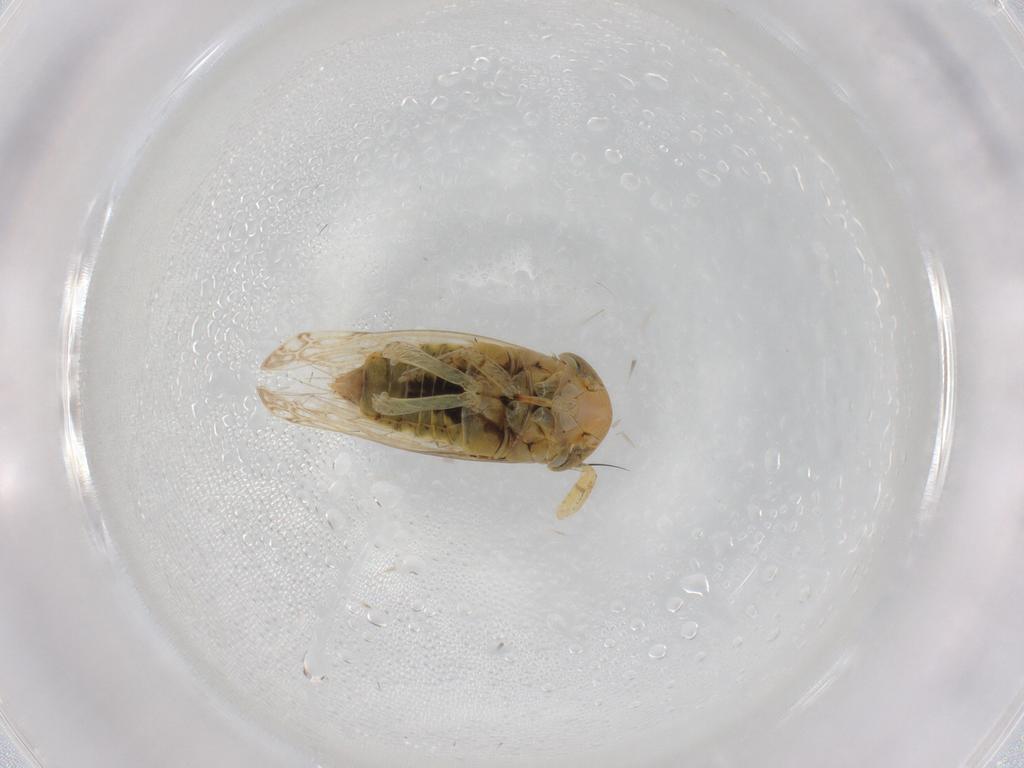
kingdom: Animalia
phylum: Arthropoda
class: Insecta
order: Hemiptera
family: Cicadellidae
